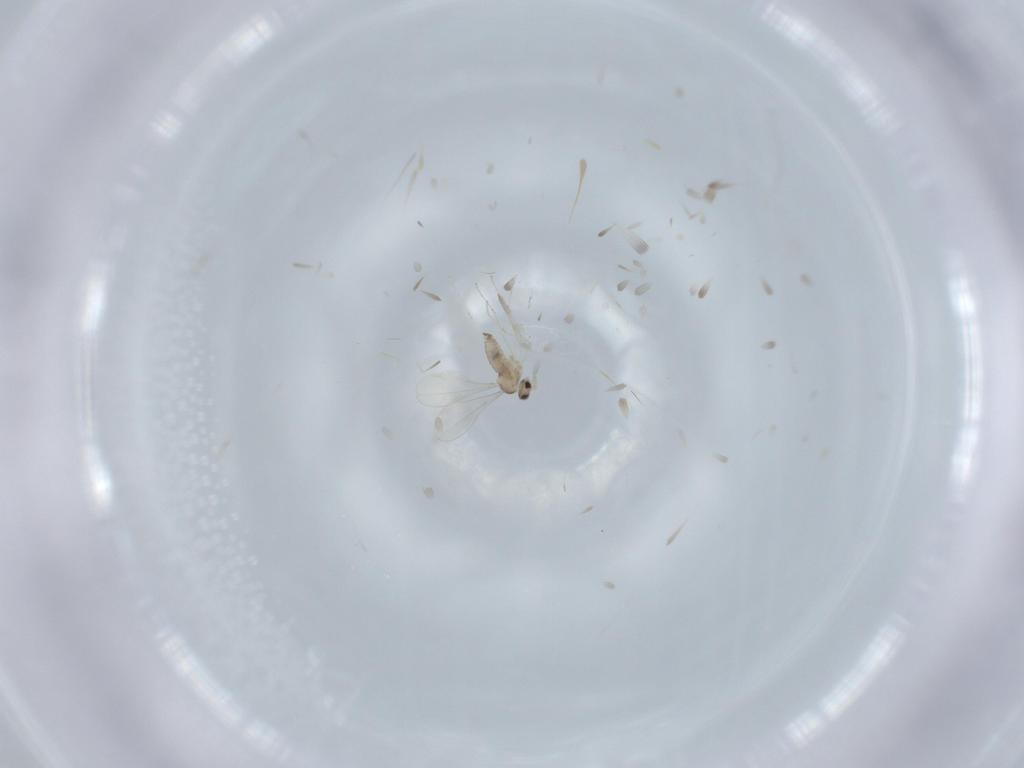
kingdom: Animalia
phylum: Arthropoda
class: Insecta
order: Diptera
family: Cecidomyiidae
